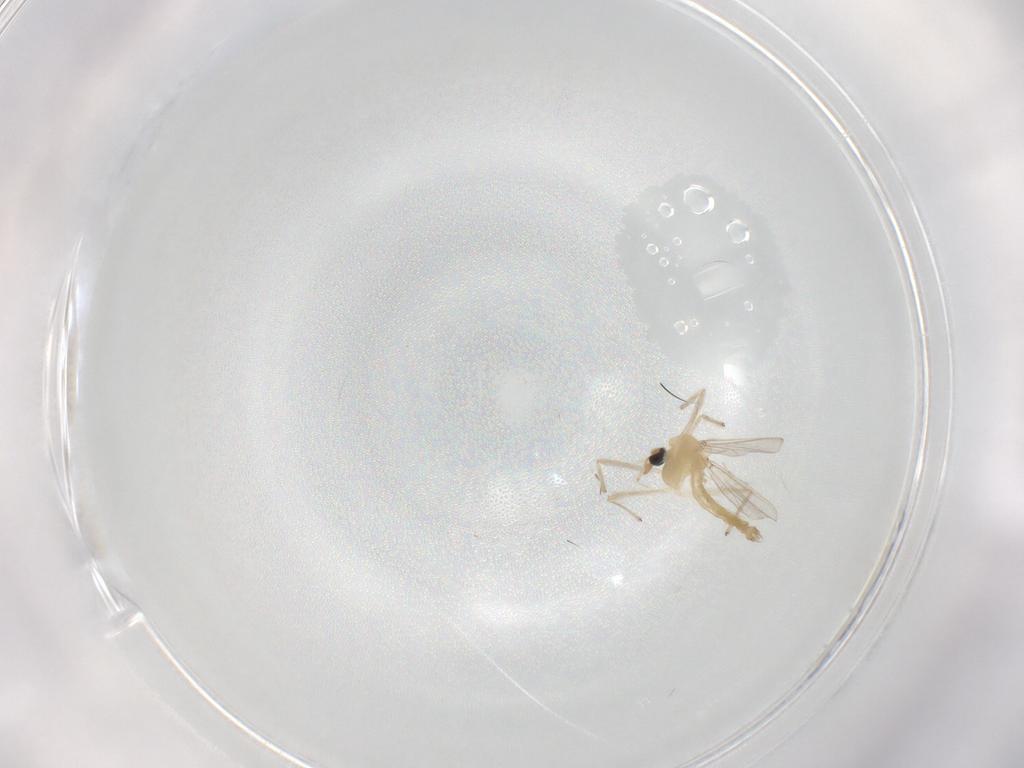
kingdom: Animalia
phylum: Arthropoda
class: Insecta
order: Diptera
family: Chironomidae
